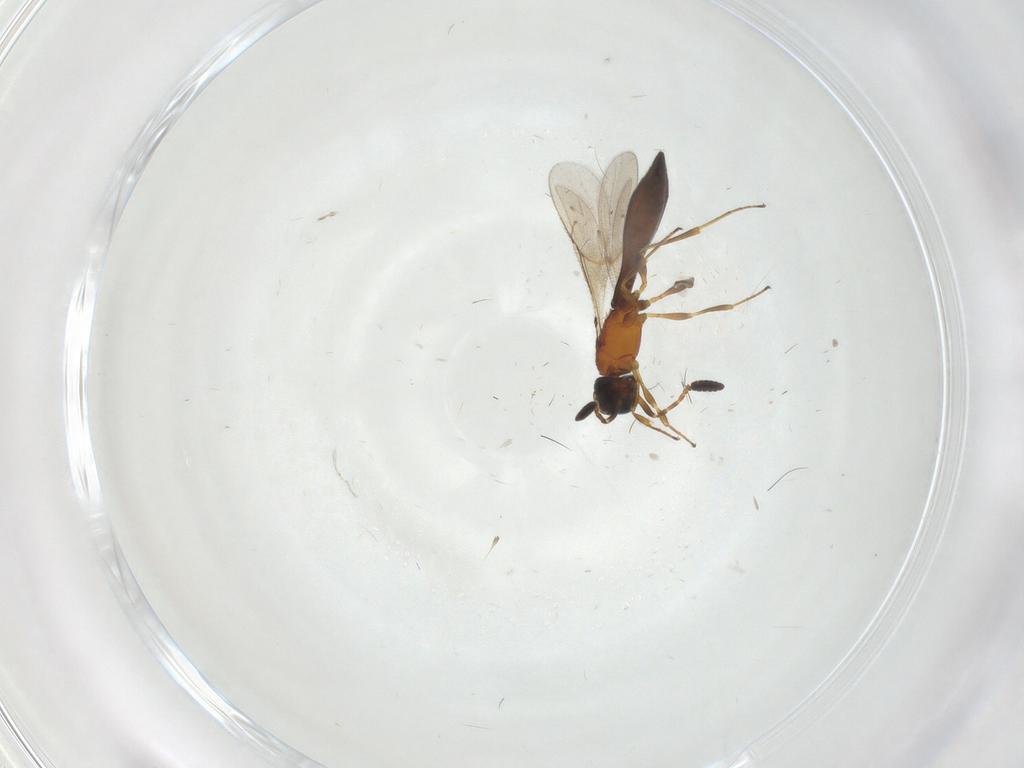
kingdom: Animalia
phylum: Arthropoda
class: Insecta
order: Hymenoptera
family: Scelionidae
